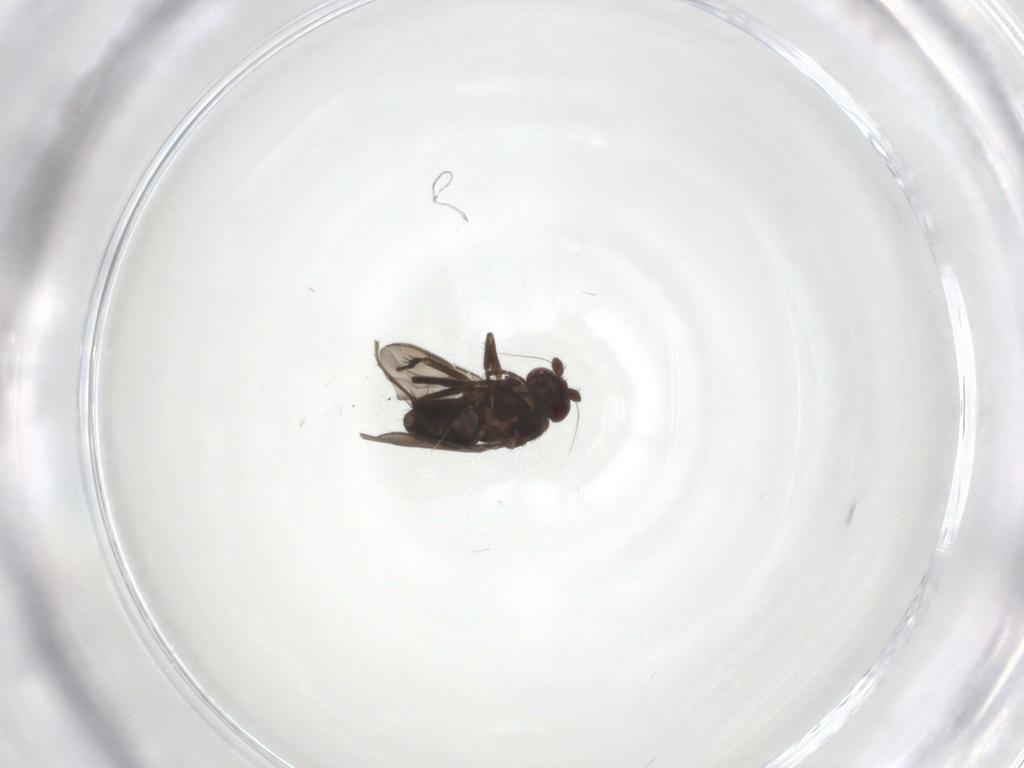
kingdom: Animalia
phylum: Arthropoda
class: Insecta
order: Diptera
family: Sphaeroceridae
